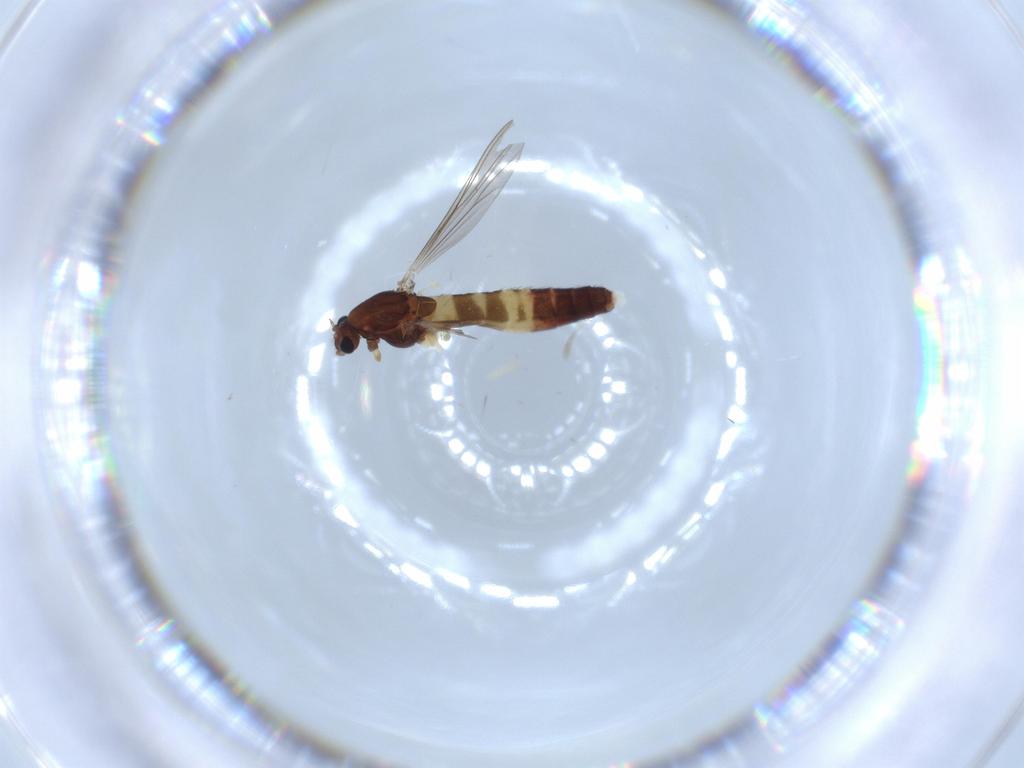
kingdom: Animalia
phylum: Arthropoda
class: Insecta
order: Diptera
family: Chironomidae
